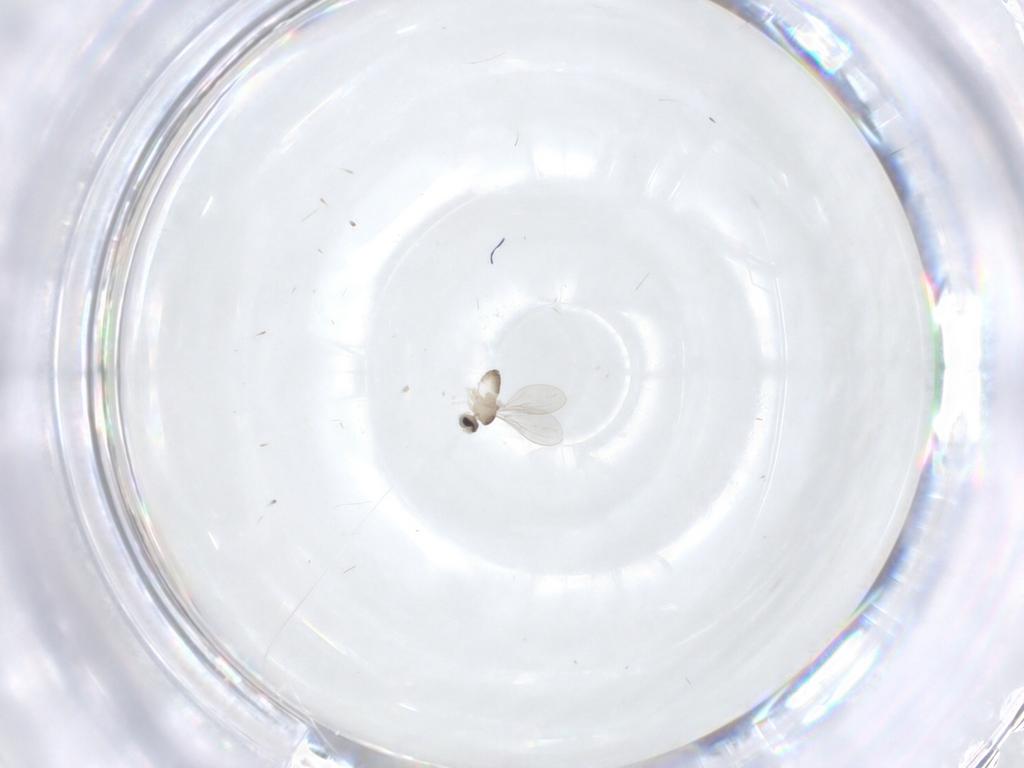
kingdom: Animalia
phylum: Arthropoda
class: Insecta
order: Diptera
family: Cecidomyiidae
